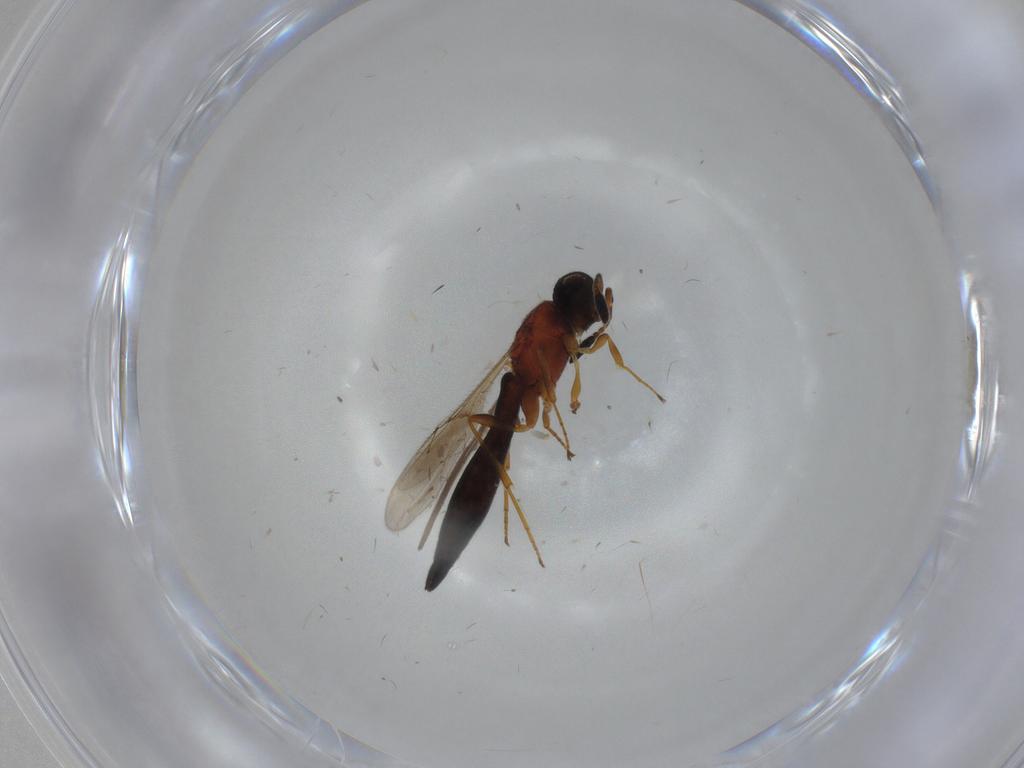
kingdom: Animalia
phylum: Arthropoda
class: Insecta
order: Hymenoptera
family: Scelionidae
